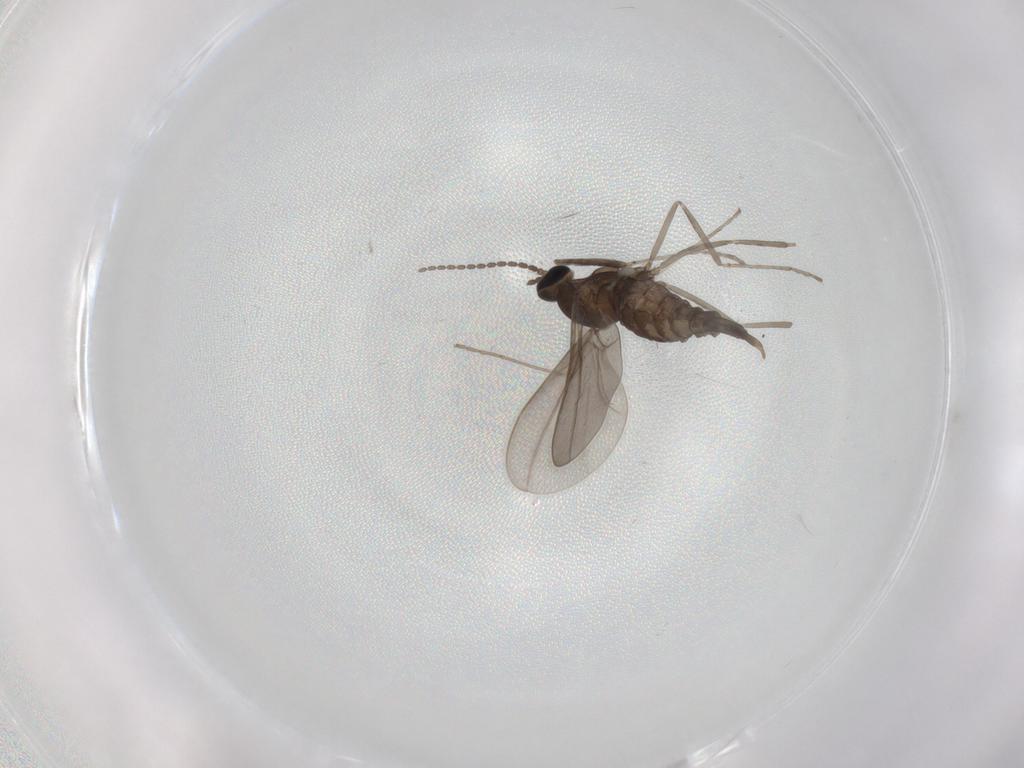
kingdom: Animalia
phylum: Arthropoda
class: Insecta
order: Diptera
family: Cecidomyiidae
